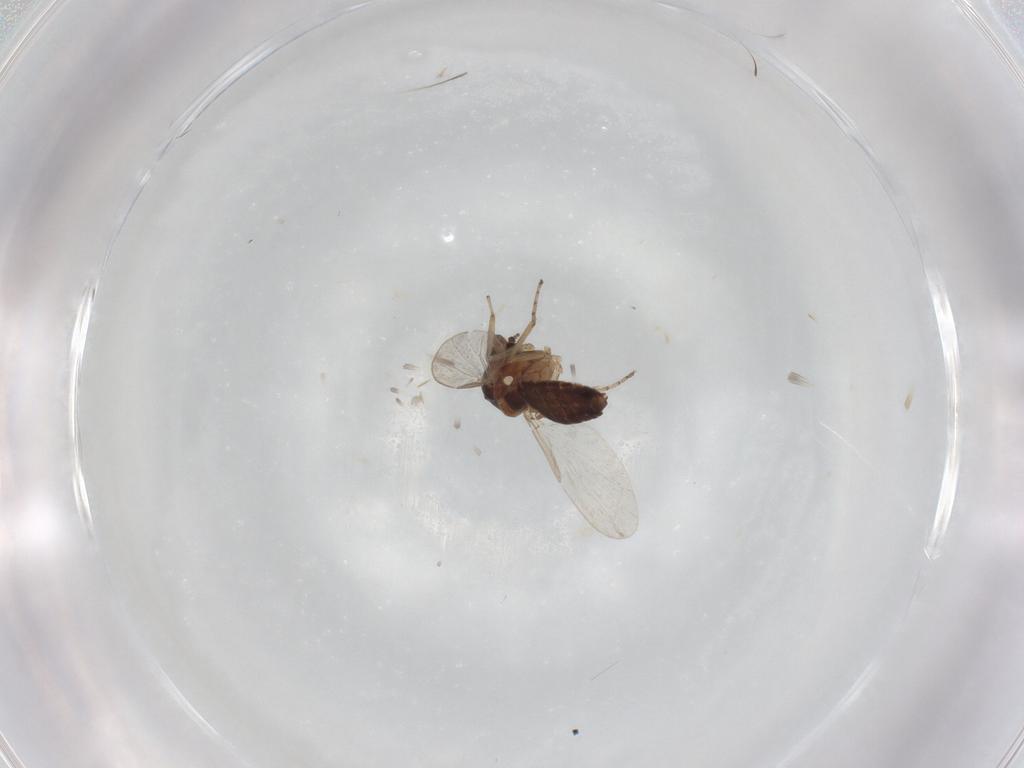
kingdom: Animalia
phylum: Arthropoda
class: Insecta
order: Diptera
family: Ceratopogonidae
